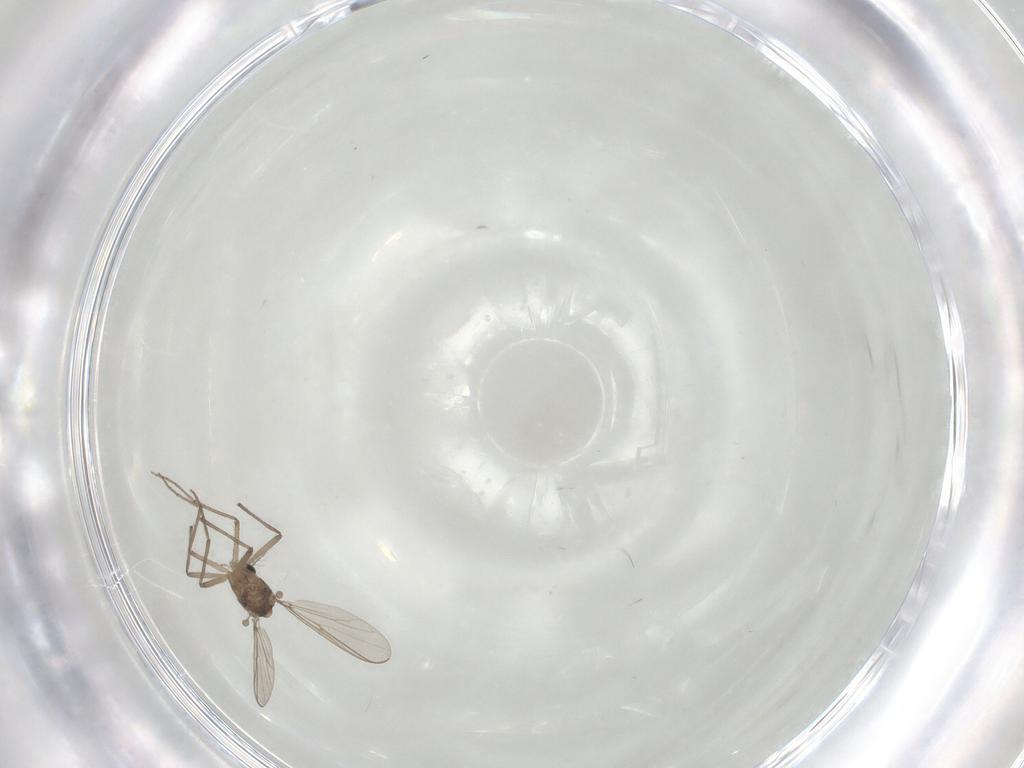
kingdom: Animalia
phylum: Arthropoda
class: Insecta
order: Diptera
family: Chironomidae
